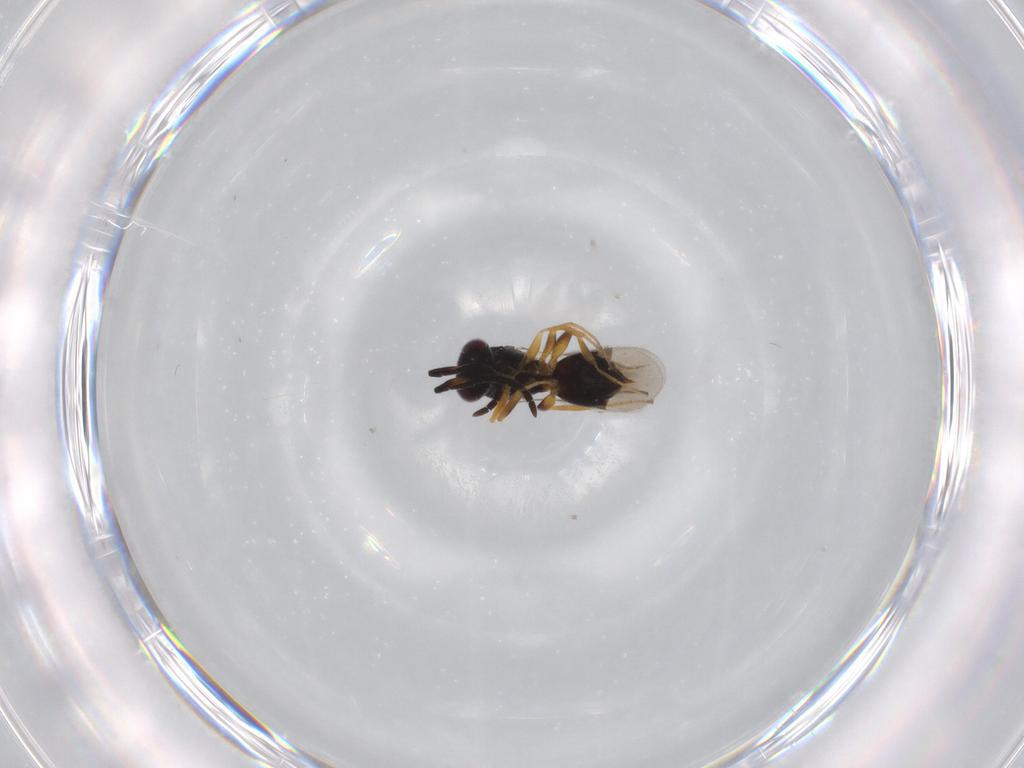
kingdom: Animalia
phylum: Arthropoda
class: Insecta
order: Hymenoptera
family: Megaspilidae
